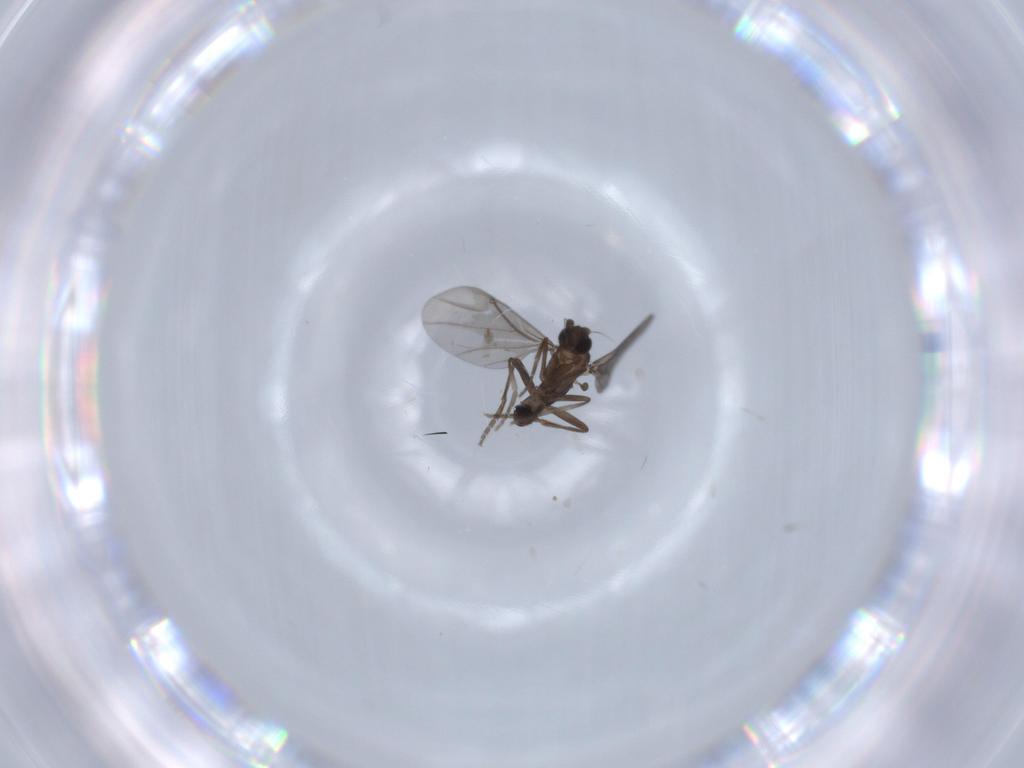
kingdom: Animalia
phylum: Arthropoda
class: Insecta
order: Diptera
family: Phoridae
